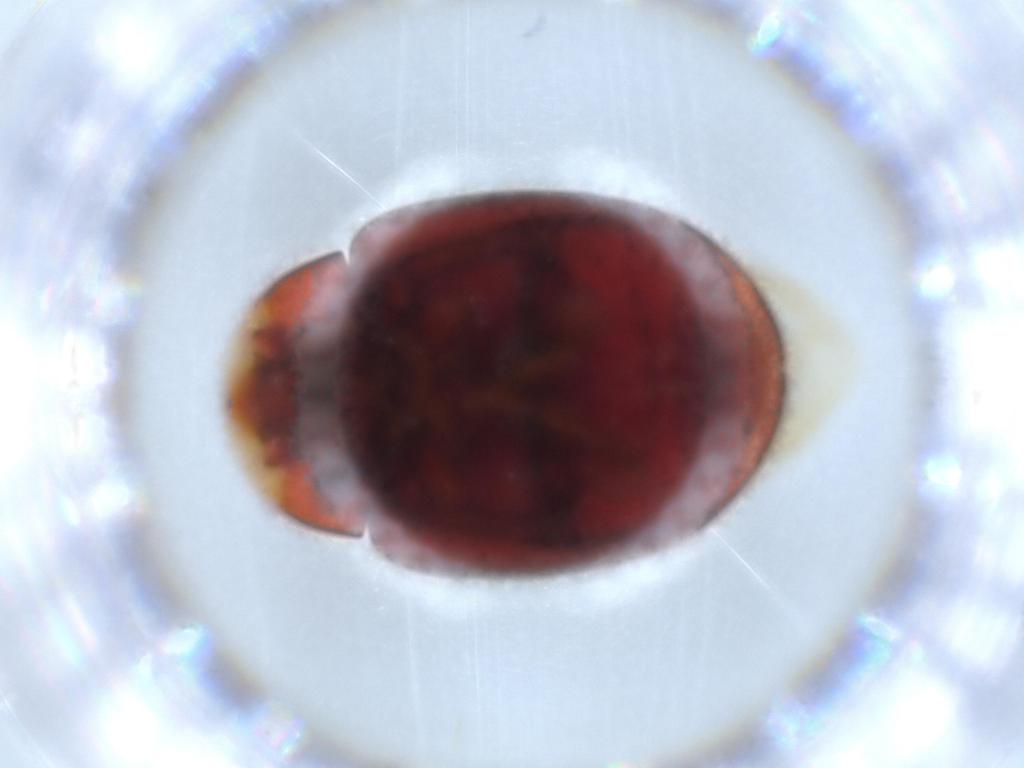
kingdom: Animalia
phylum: Arthropoda
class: Insecta
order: Coleoptera
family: Coccinellidae
